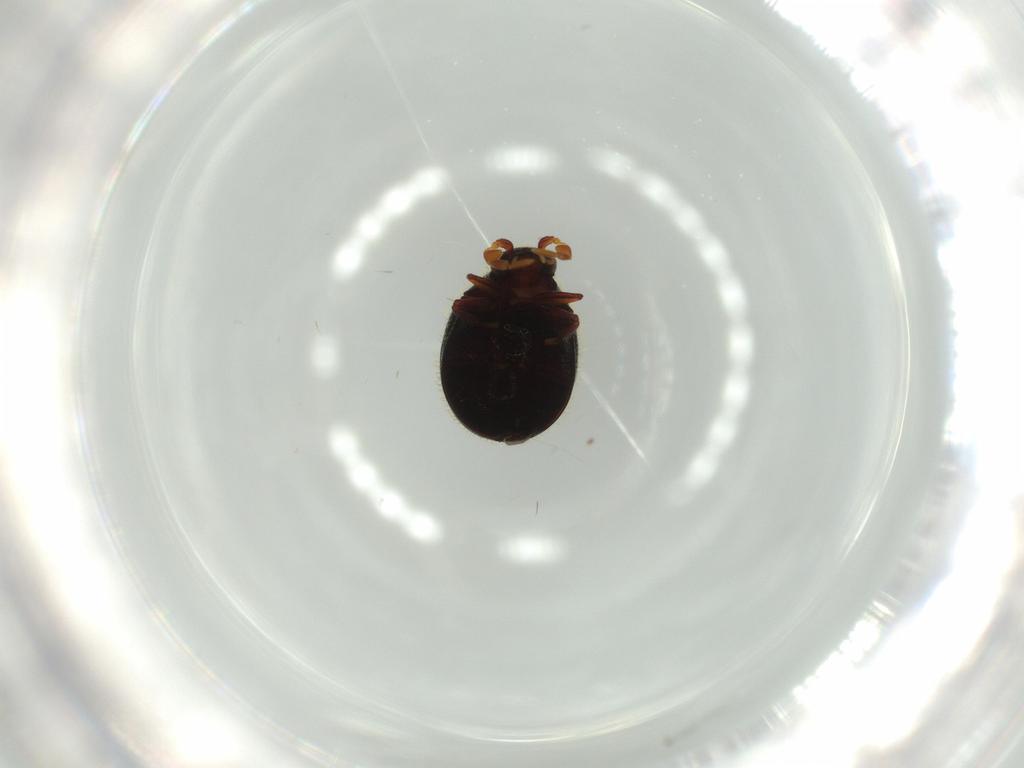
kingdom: Animalia
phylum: Arthropoda
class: Insecta
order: Coleoptera
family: Ptinidae
